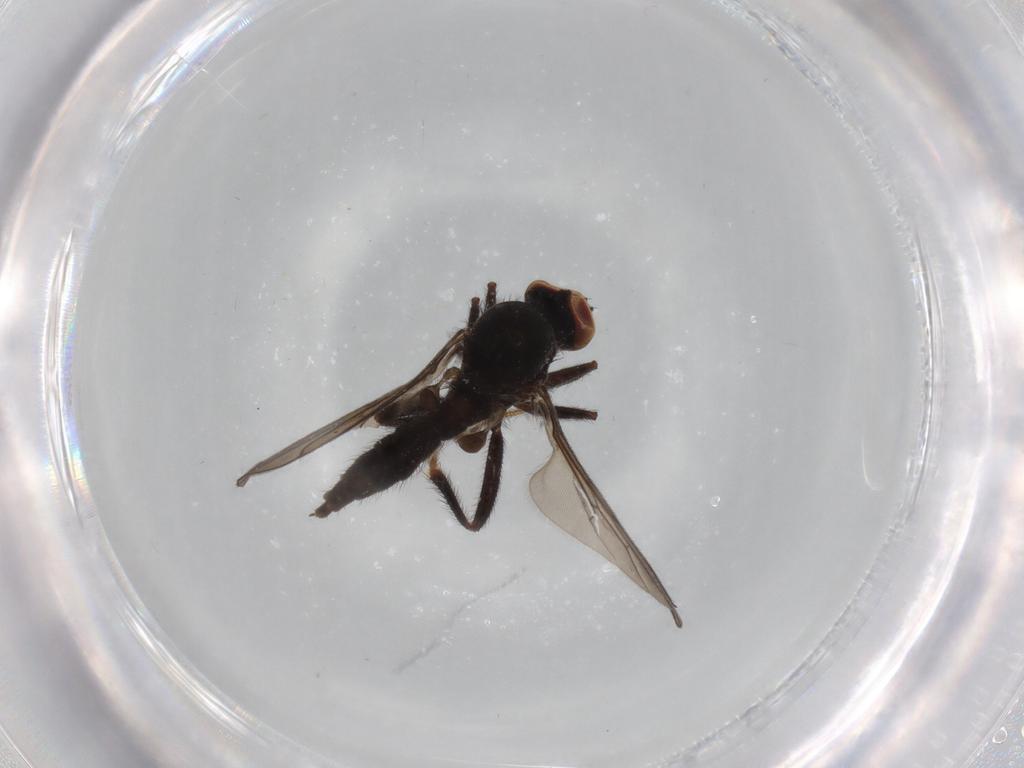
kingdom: Animalia
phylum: Arthropoda
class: Insecta
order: Diptera
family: Hybotidae
